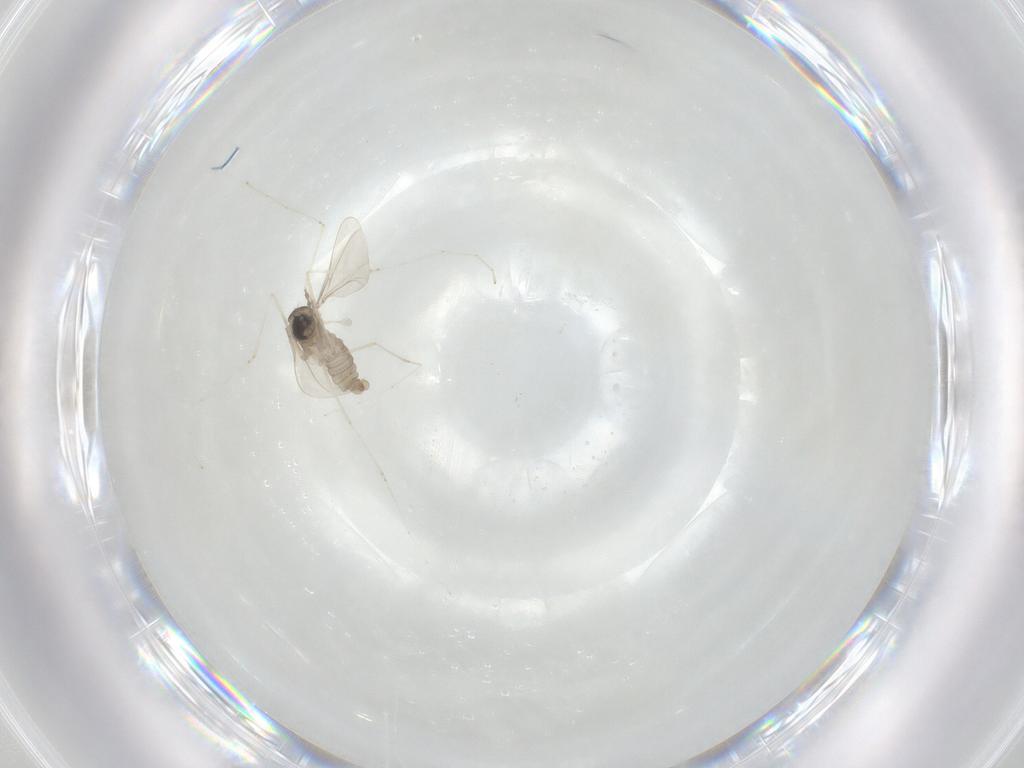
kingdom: Animalia
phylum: Arthropoda
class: Insecta
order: Diptera
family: Cecidomyiidae
